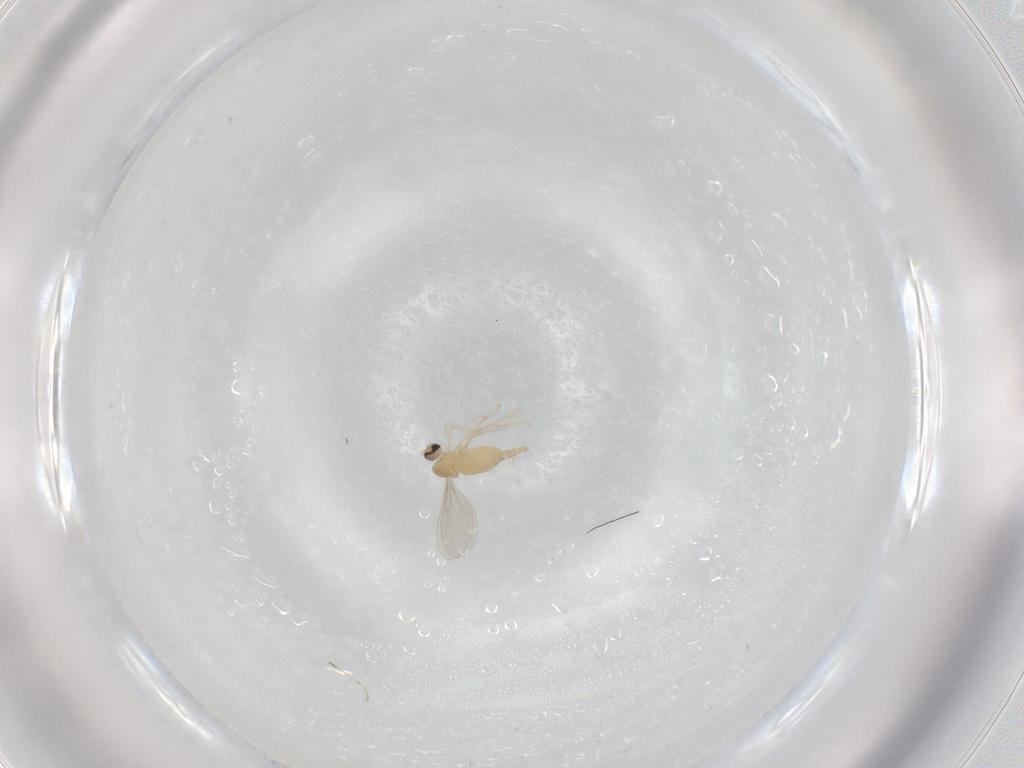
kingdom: Animalia
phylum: Arthropoda
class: Insecta
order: Diptera
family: Cecidomyiidae
